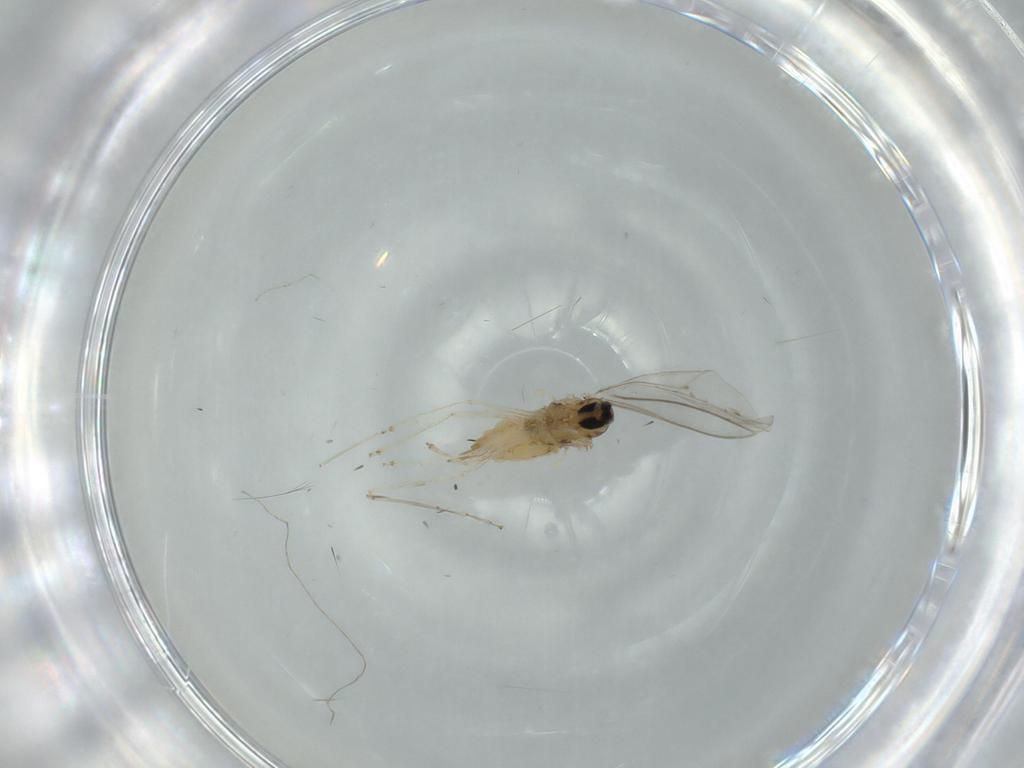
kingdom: Animalia
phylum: Arthropoda
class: Insecta
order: Diptera
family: Cecidomyiidae
